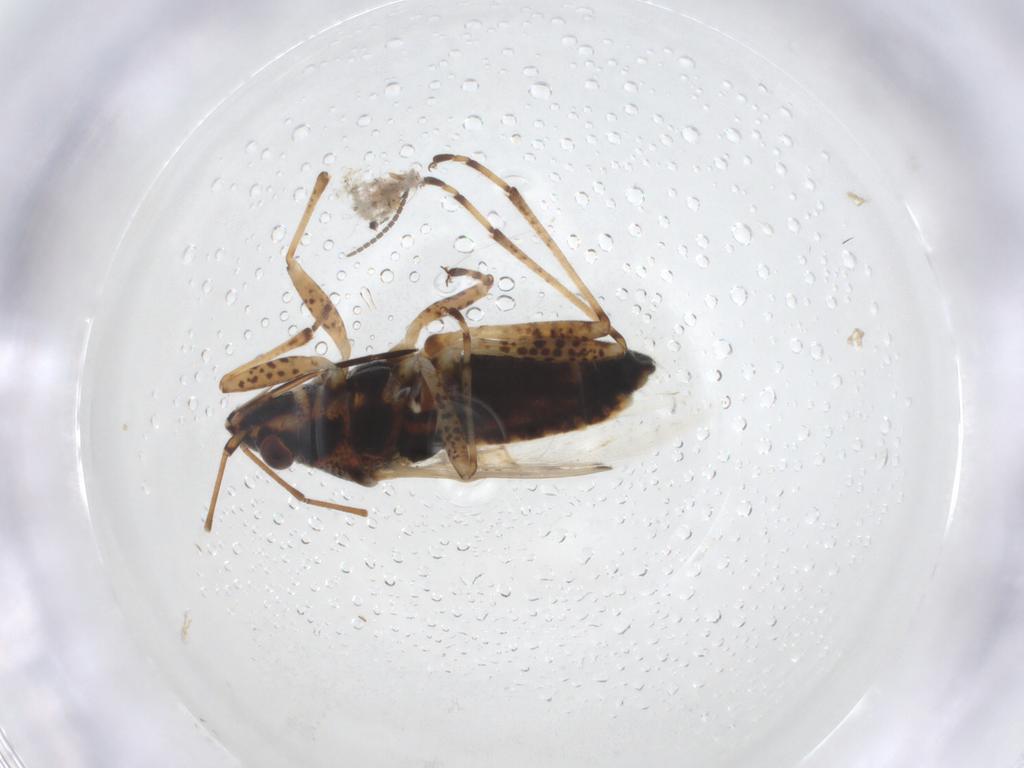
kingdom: Animalia
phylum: Arthropoda
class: Insecta
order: Hemiptera
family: Lygaeidae
